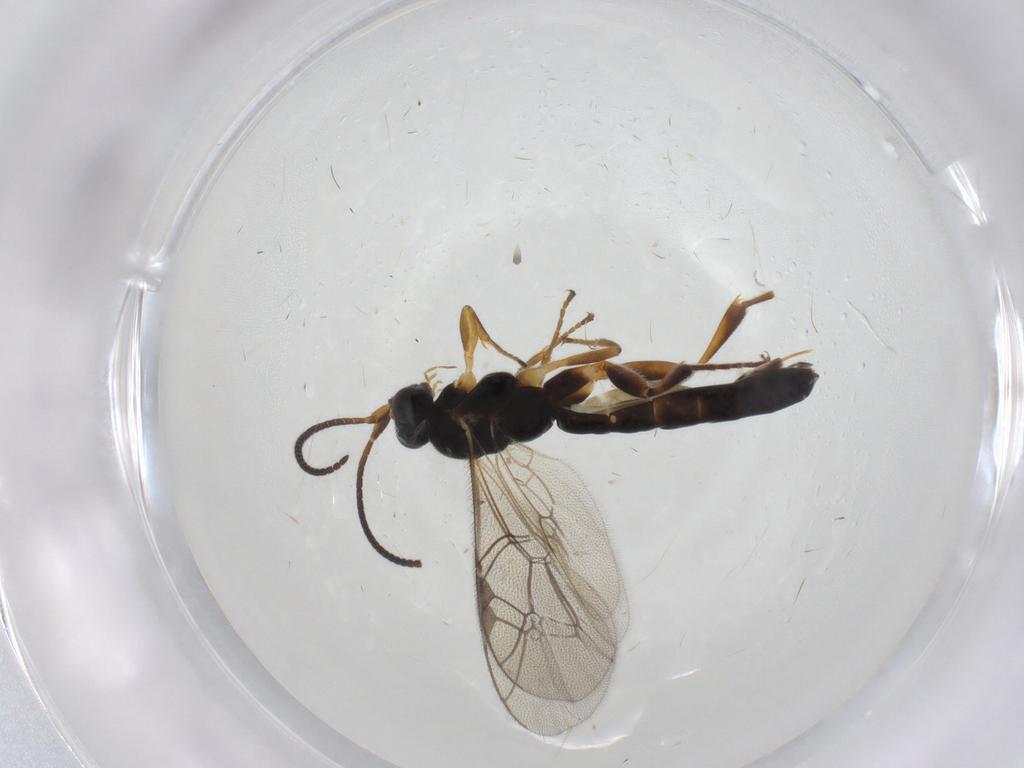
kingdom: Animalia
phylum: Arthropoda
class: Insecta
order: Hymenoptera
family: Ichneumonidae
